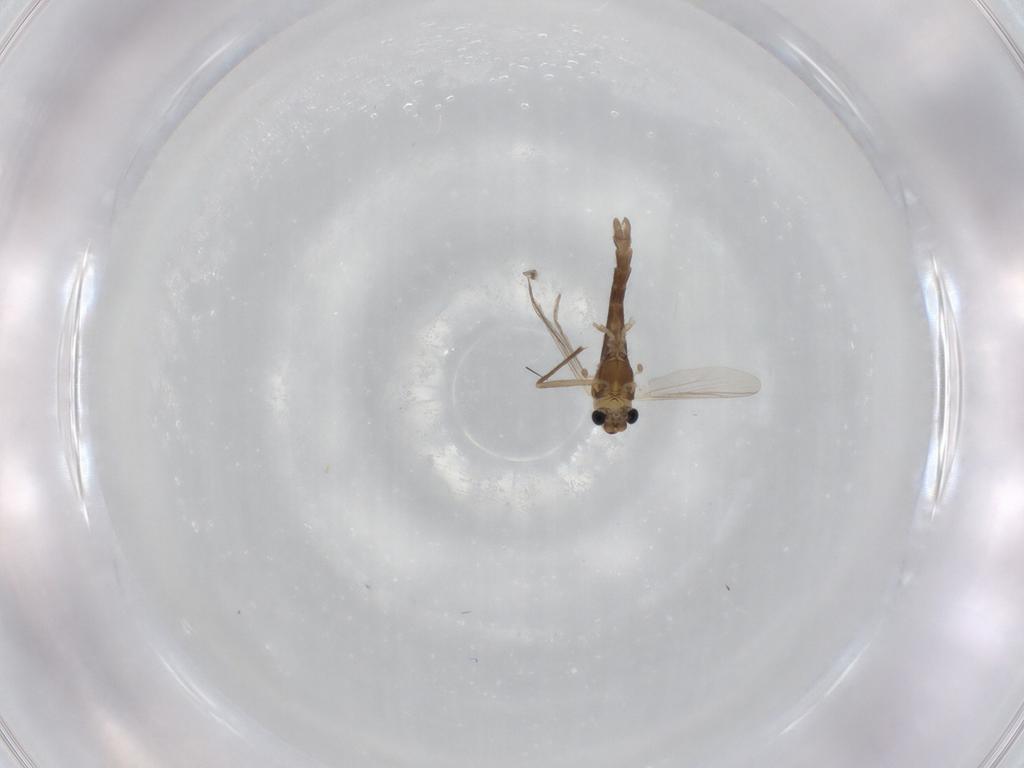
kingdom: Animalia
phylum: Arthropoda
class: Insecta
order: Diptera
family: Chironomidae
